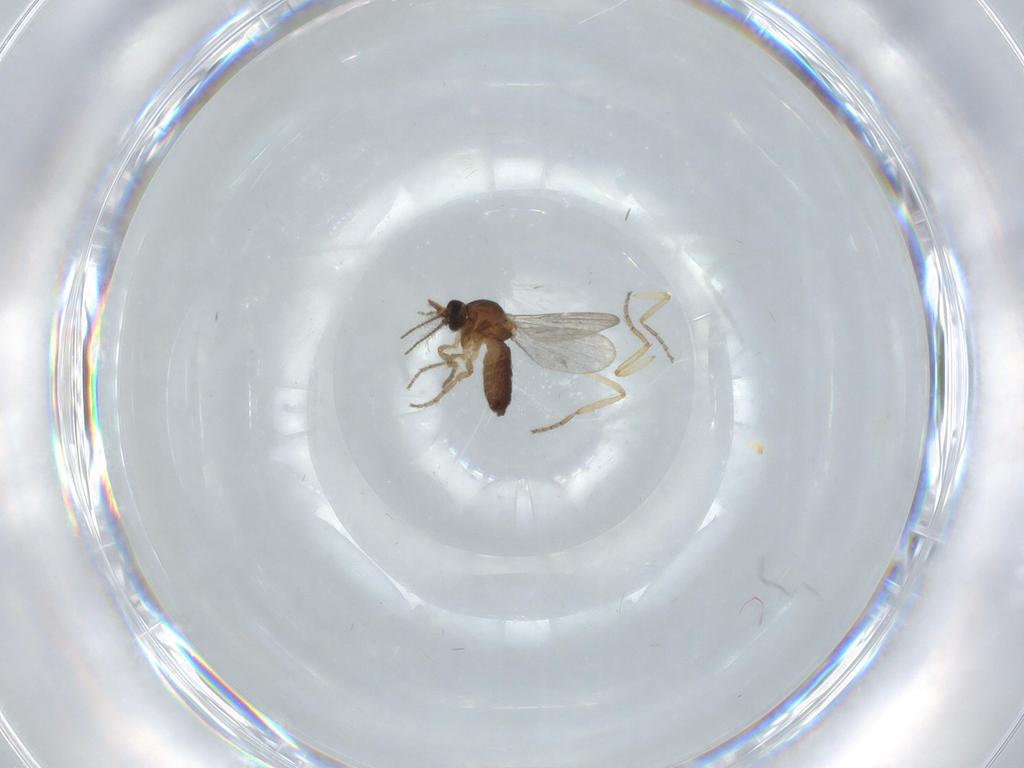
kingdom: Animalia
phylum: Arthropoda
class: Insecta
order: Diptera
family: Ceratopogonidae
